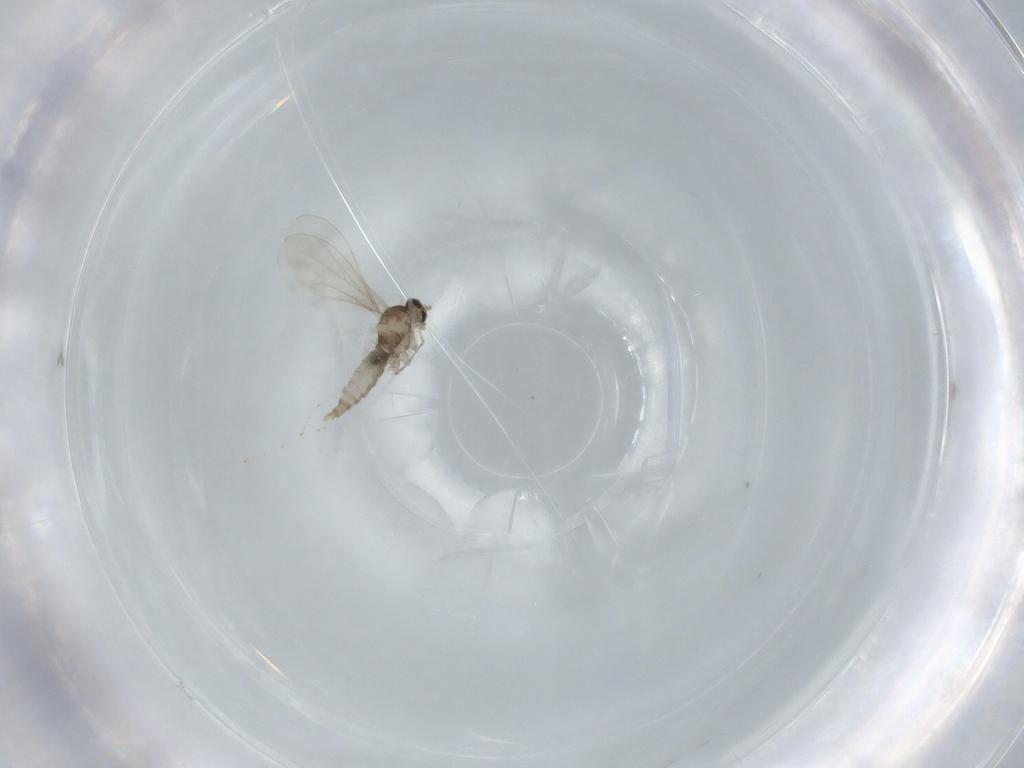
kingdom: Animalia
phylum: Arthropoda
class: Insecta
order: Diptera
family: Cecidomyiidae
